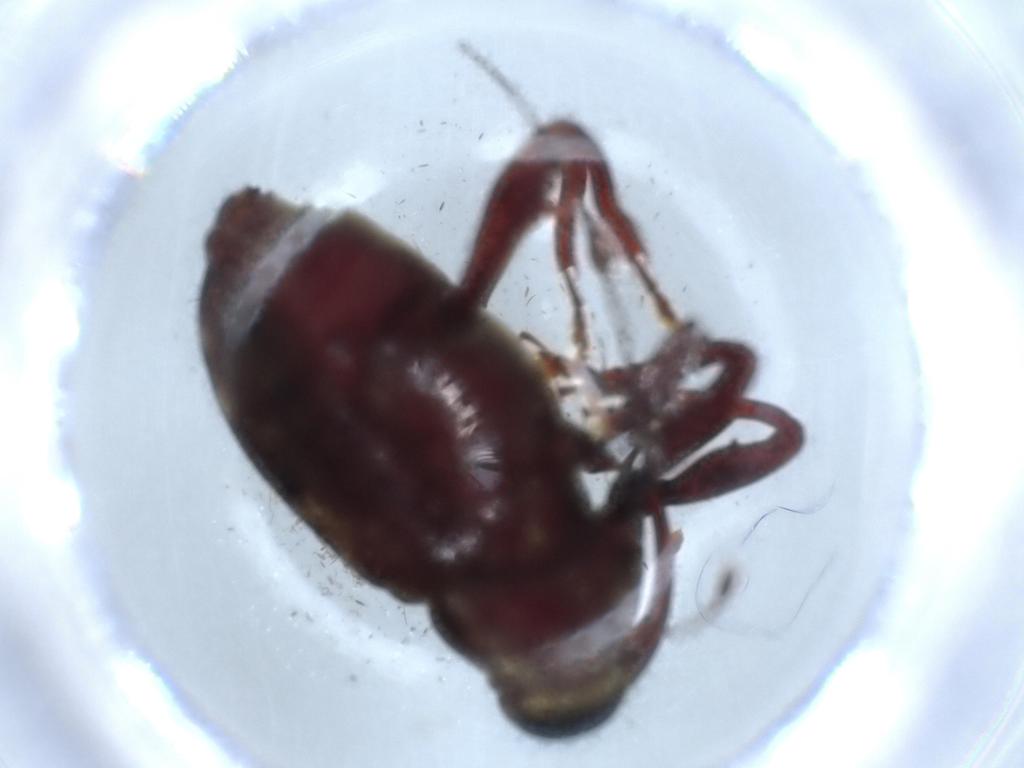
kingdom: Animalia
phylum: Arthropoda
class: Insecta
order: Coleoptera
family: Curculionidae
